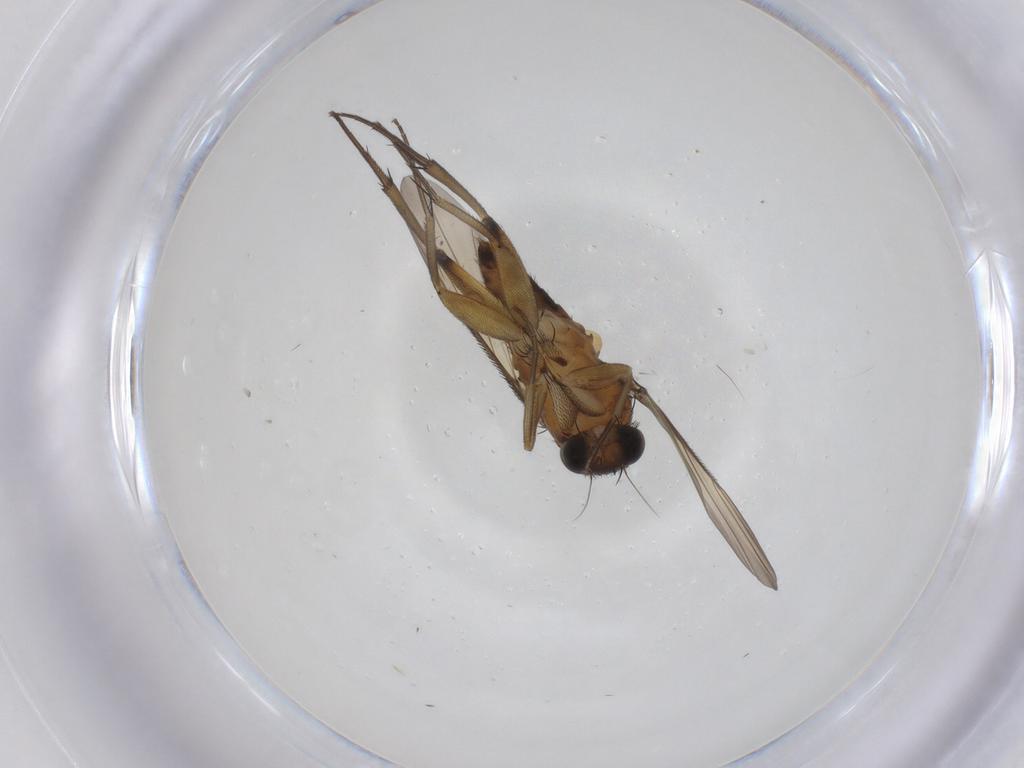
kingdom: Animalia
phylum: Arthropoda
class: Insecta
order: Diptera
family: Phoridae
